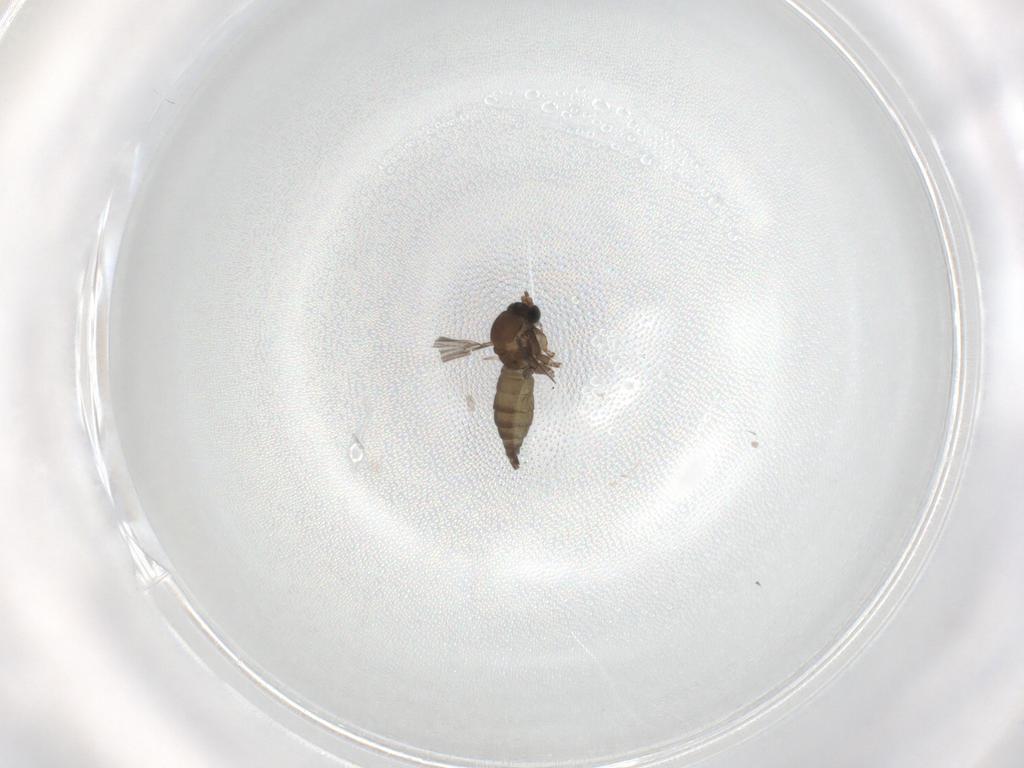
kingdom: Animalia
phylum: Arthropoda
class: Insecta
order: Diptera
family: Sciaridae
